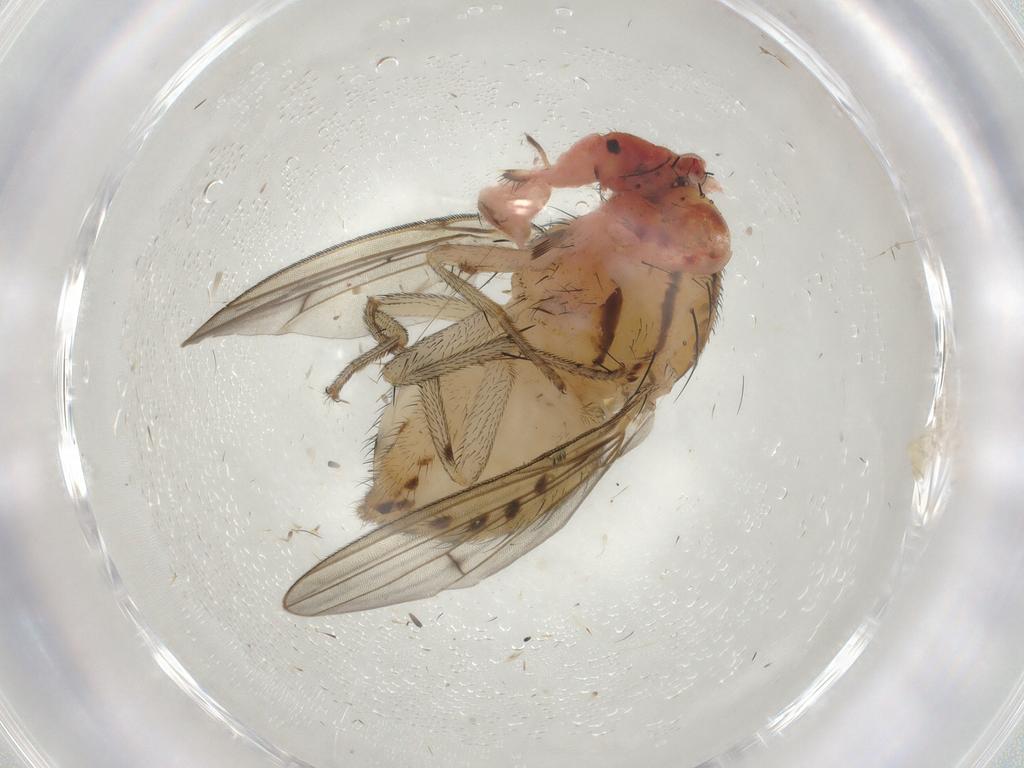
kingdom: Animalia
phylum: Arthropoda
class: Insecta
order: Diptera
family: Lauxaniidae
